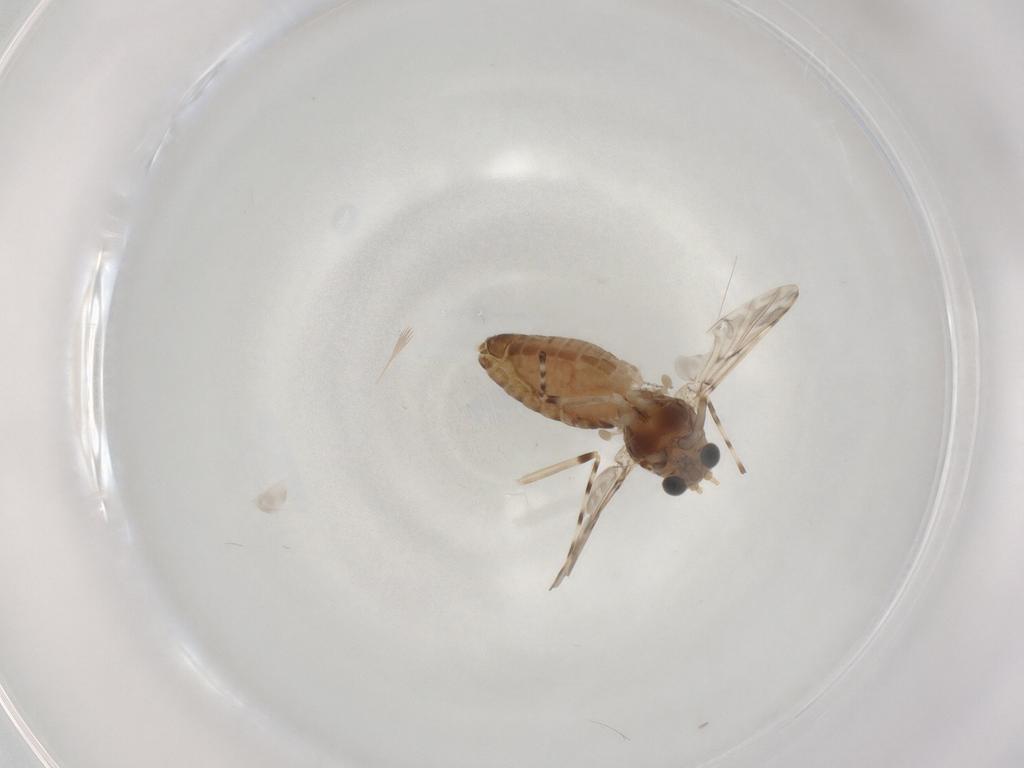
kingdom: Animalia
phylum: Arthropoda
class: Insecta
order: Diptera
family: Chironomidae
